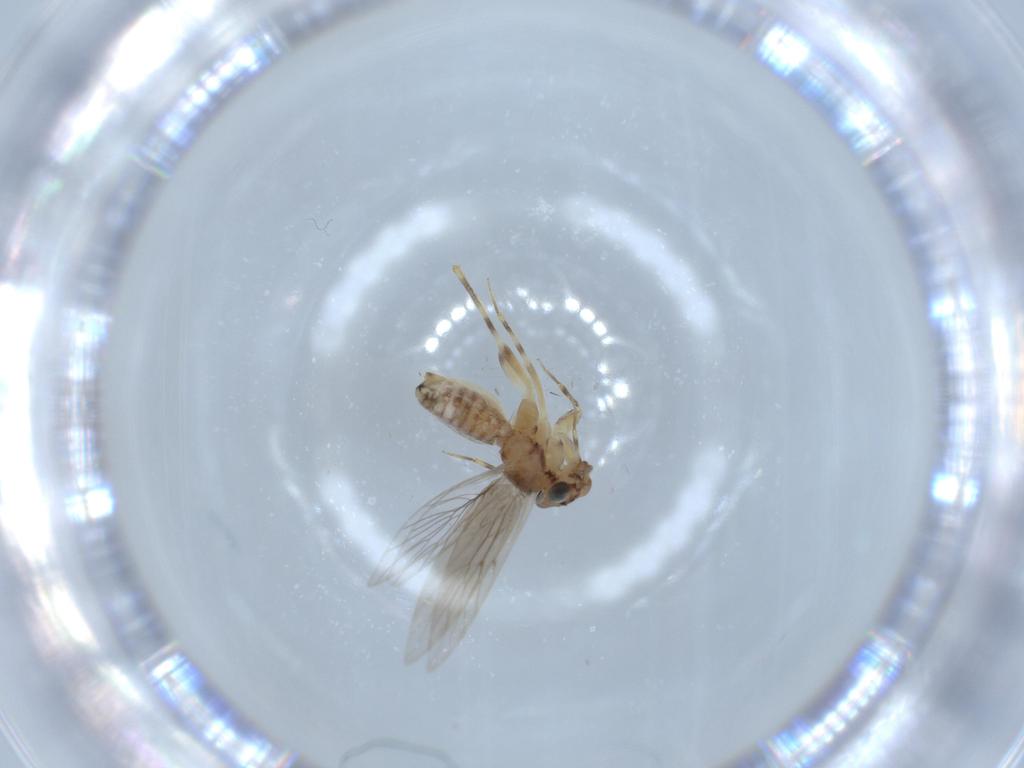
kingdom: Animalia
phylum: Arthropoda
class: Insecta
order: Psocodea
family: Lepidopsocidae
